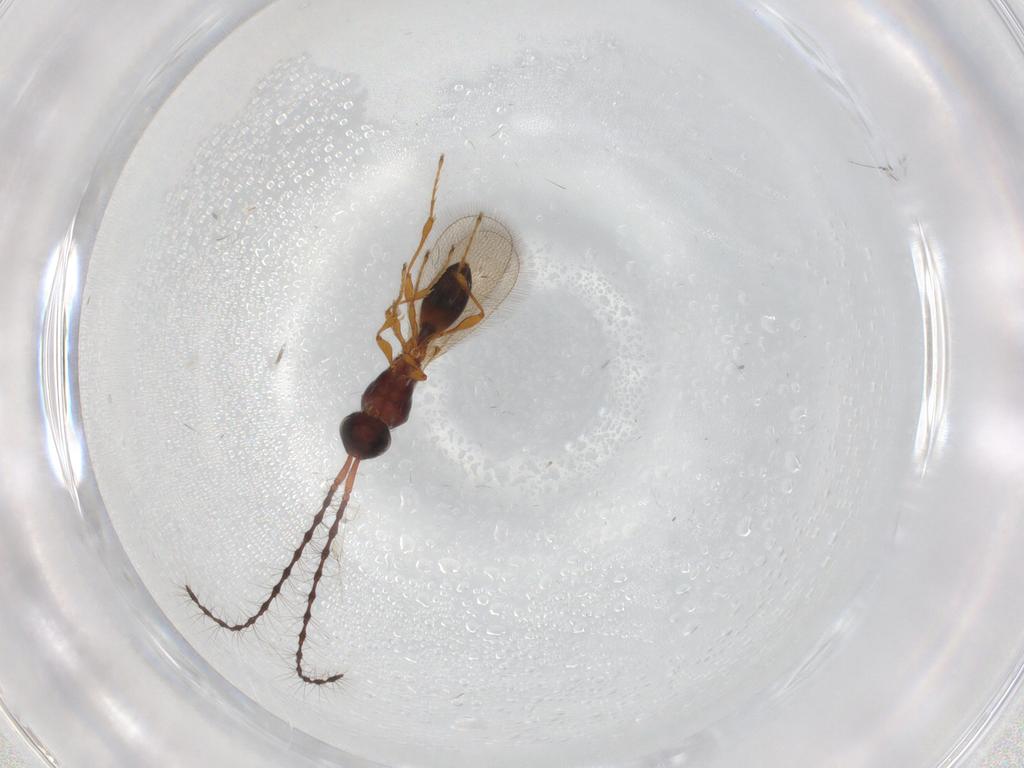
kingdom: Animalia
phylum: Arthropoda
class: Insecta
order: Hymenoptera
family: Diapriidae
